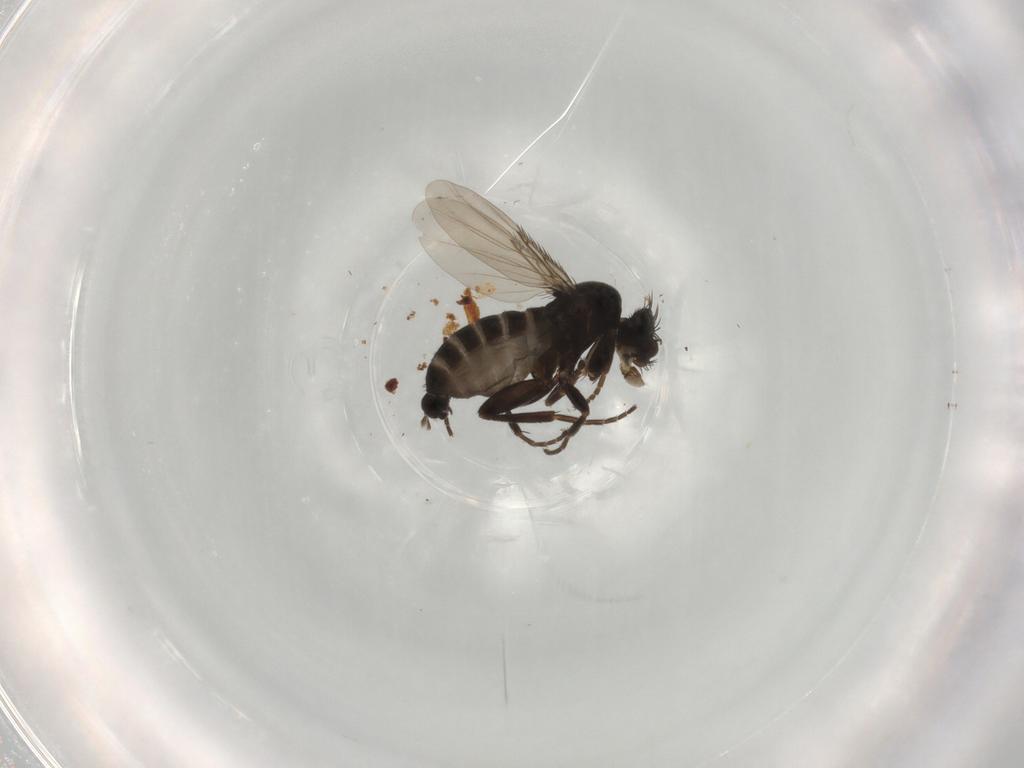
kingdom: Animalia
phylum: Arthropoda
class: Insecta
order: Diptera
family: Phoridae
